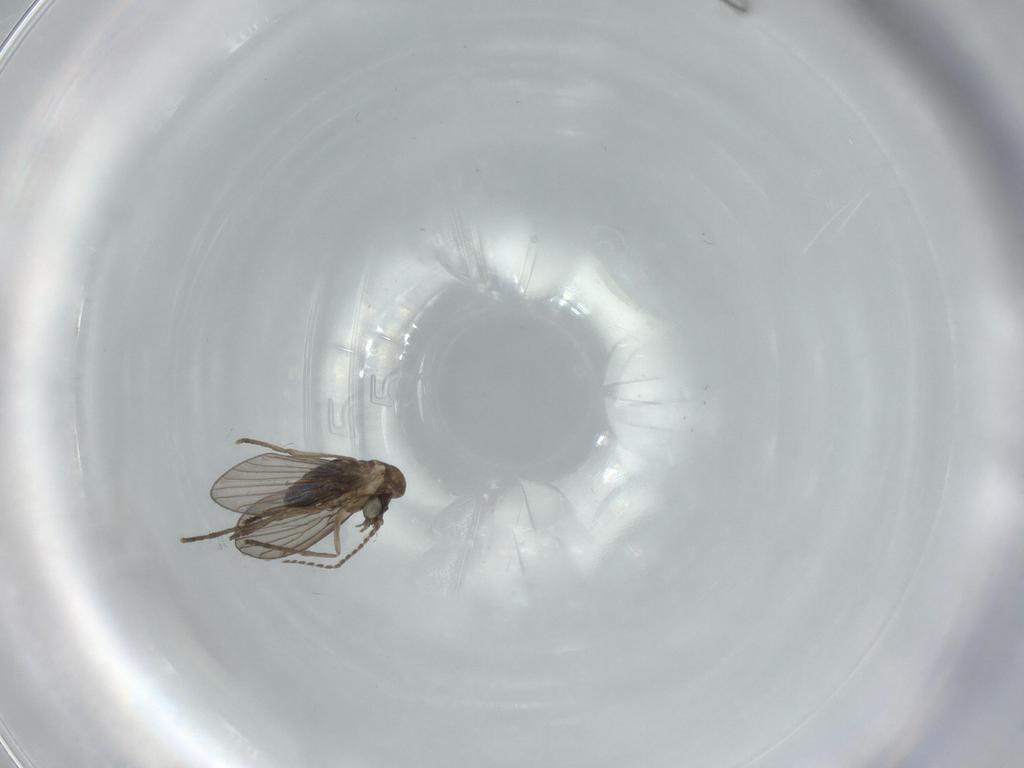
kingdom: Animalia
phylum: Arthropoda
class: Insecta
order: Diptera
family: Psychodidae
